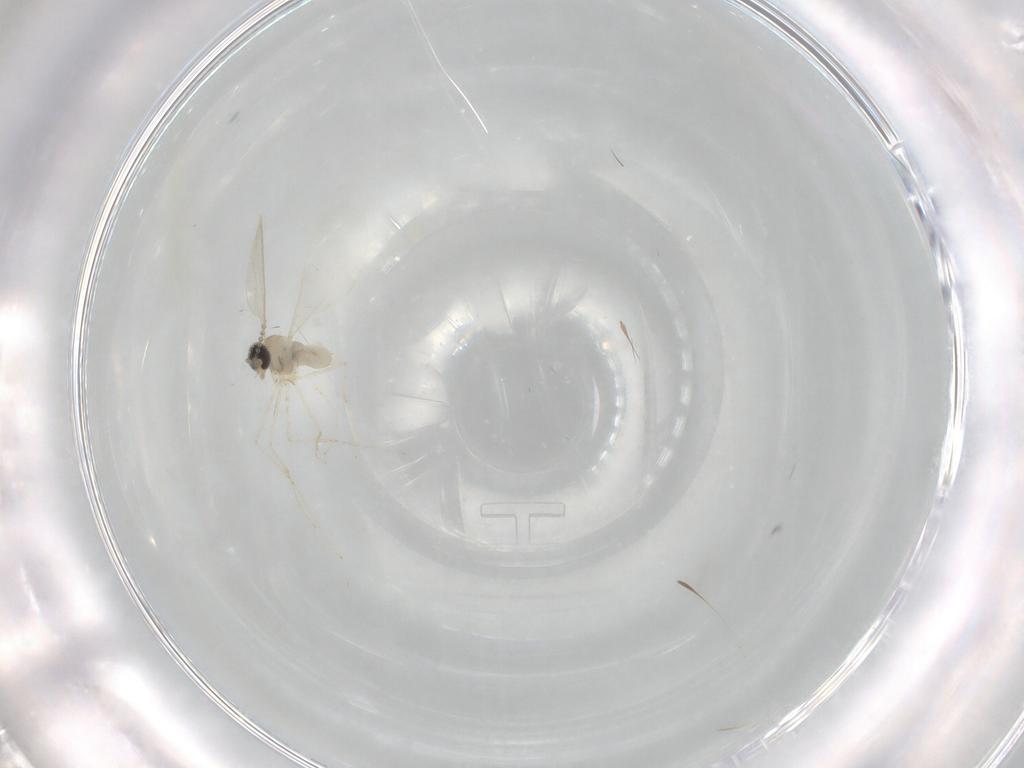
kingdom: Animalia
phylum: Arthropoda
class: Insecta
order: Diptera
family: Cecidomyiidae
